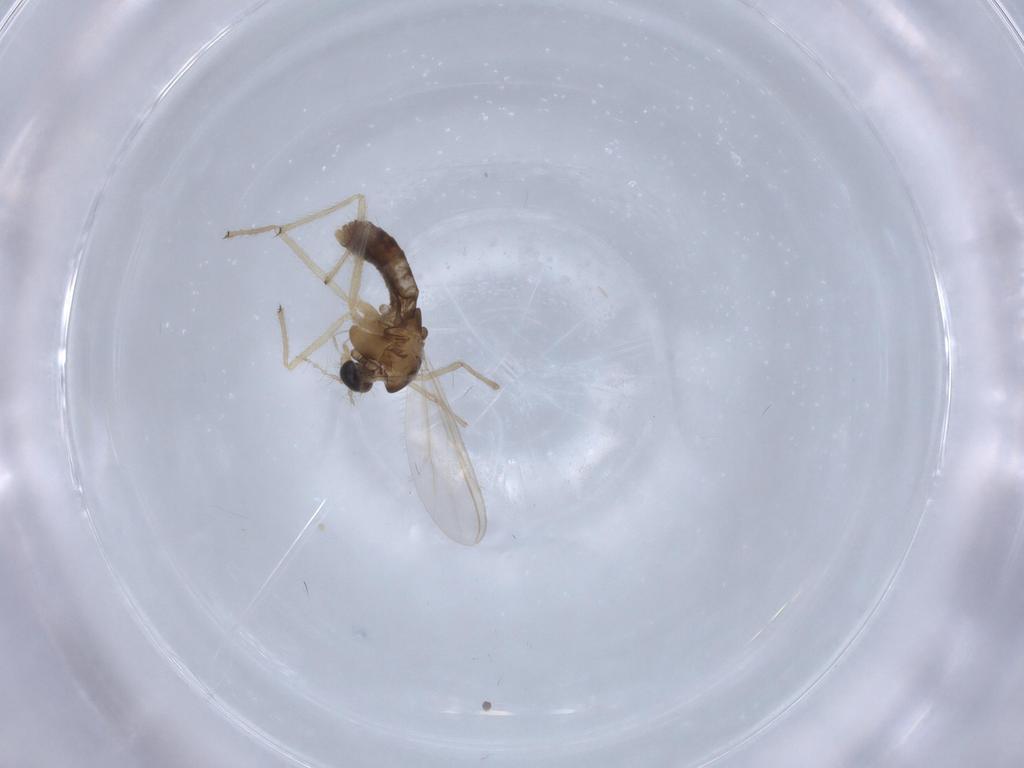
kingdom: Animalia
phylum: Arthropoda
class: Insecta
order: Diptera
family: Chironomidae
